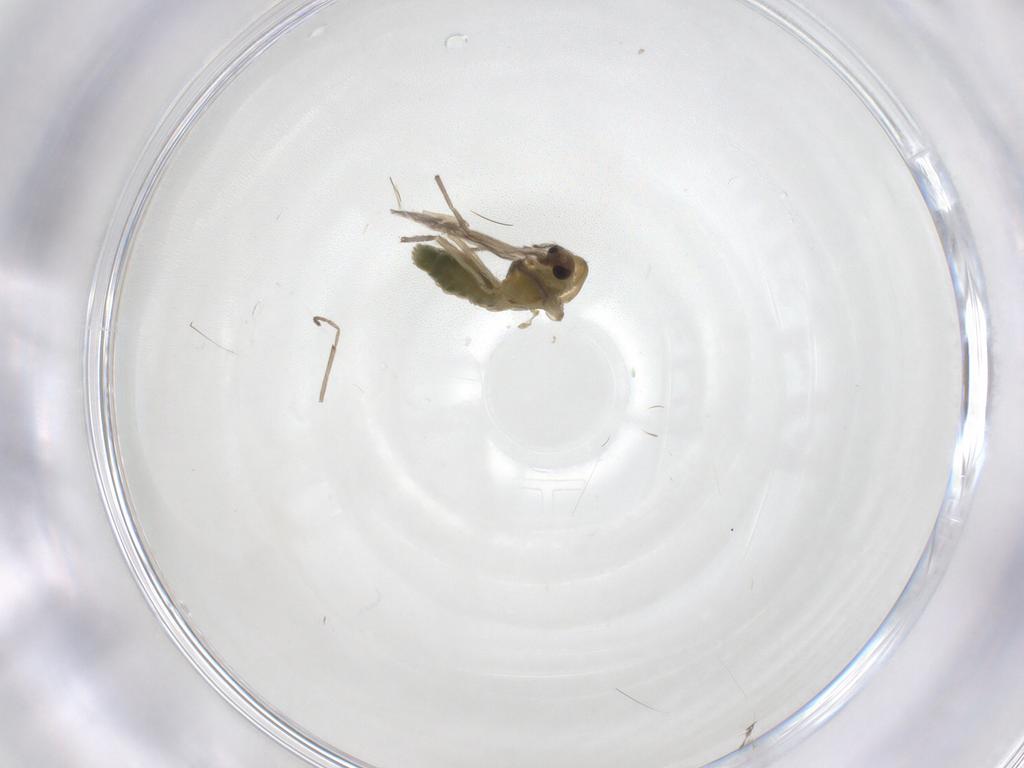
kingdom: Animalia
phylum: Arthropoda
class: Insecta
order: Diptera
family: Chironomidae
